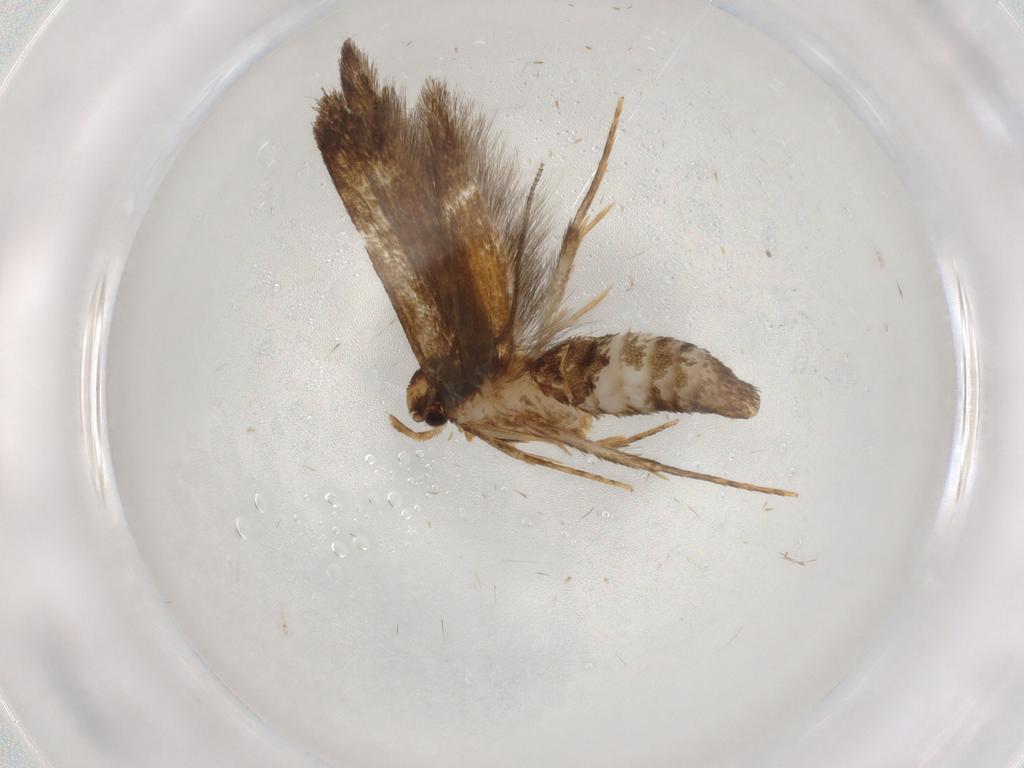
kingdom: Animalia
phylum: Arthropoda
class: Insecta
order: Lepidoptera
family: Tineidae
